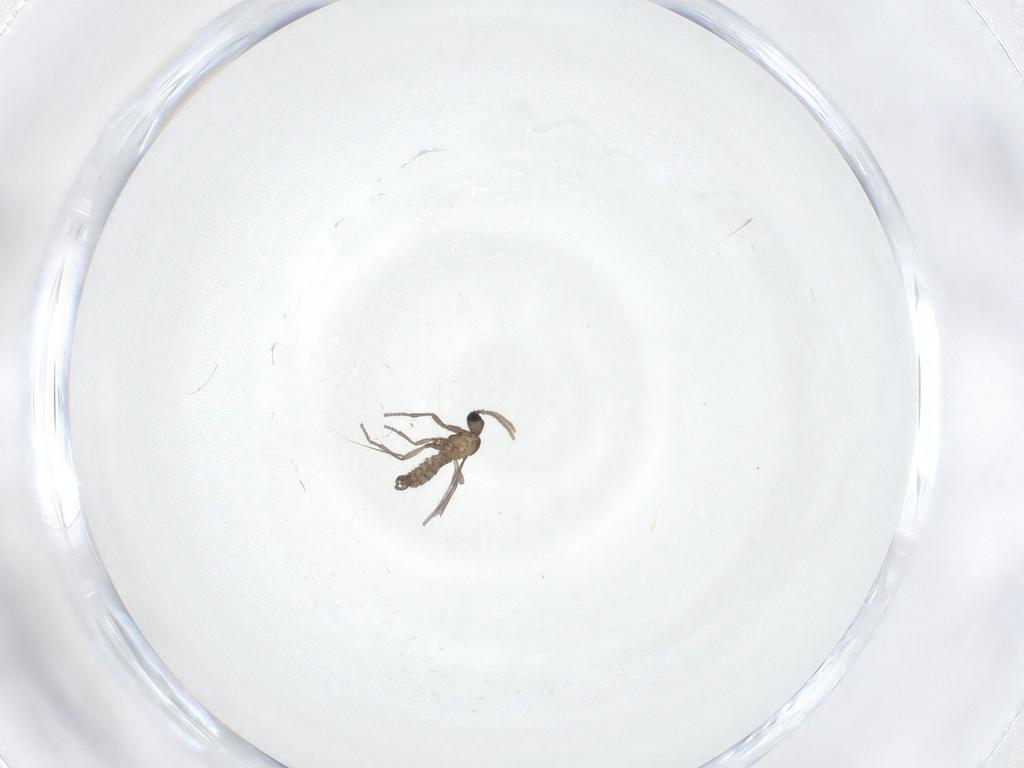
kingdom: Animalia
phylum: Arthropoda
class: Insecta
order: Diptera
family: Sciaridae
